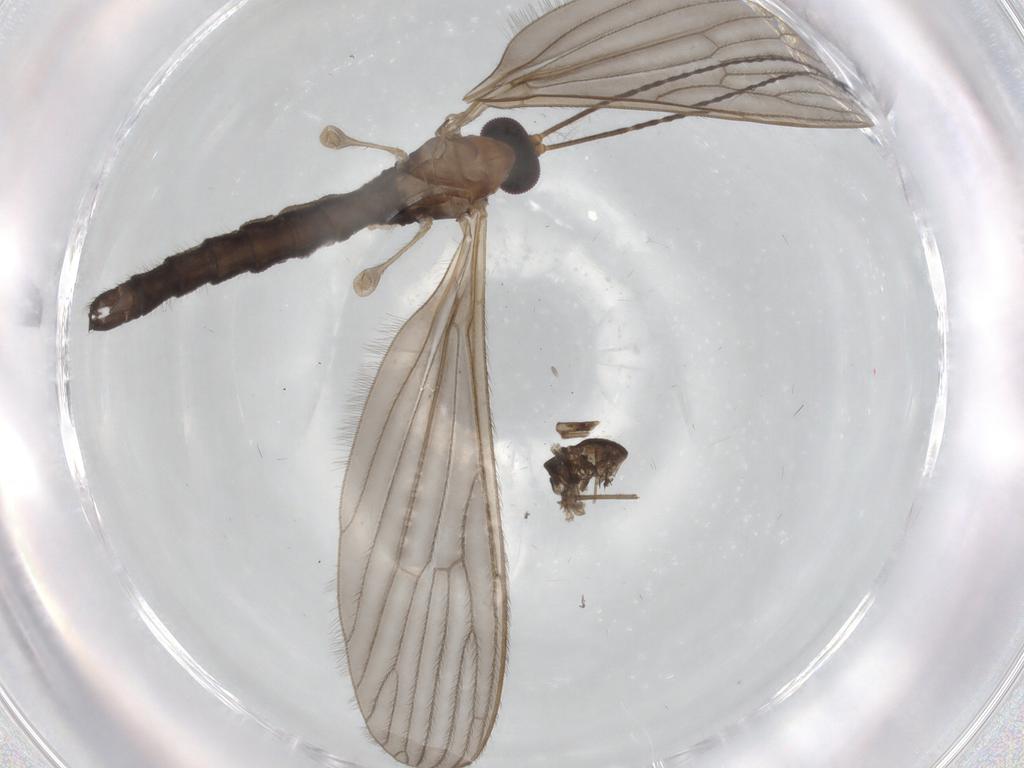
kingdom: Animalia
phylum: Arthropoda
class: Insecta
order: Diptera
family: Limoniidae
